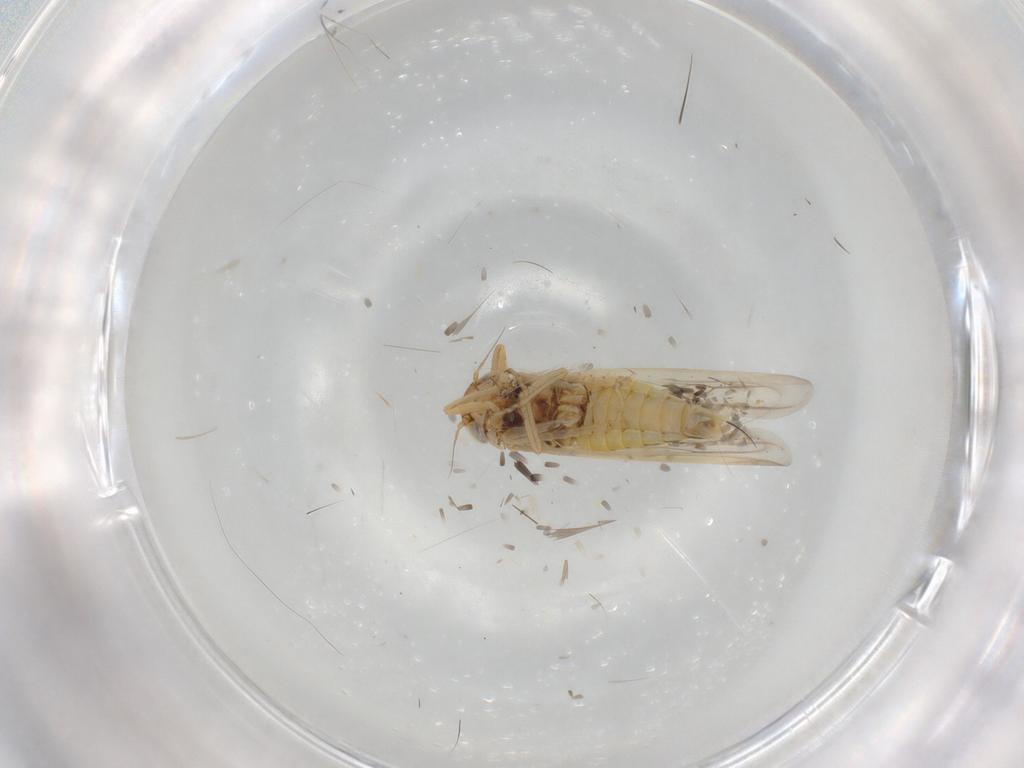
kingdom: Animalia
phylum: Arthropoda
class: Insecta
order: Hemiptera
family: Cicadellidae
